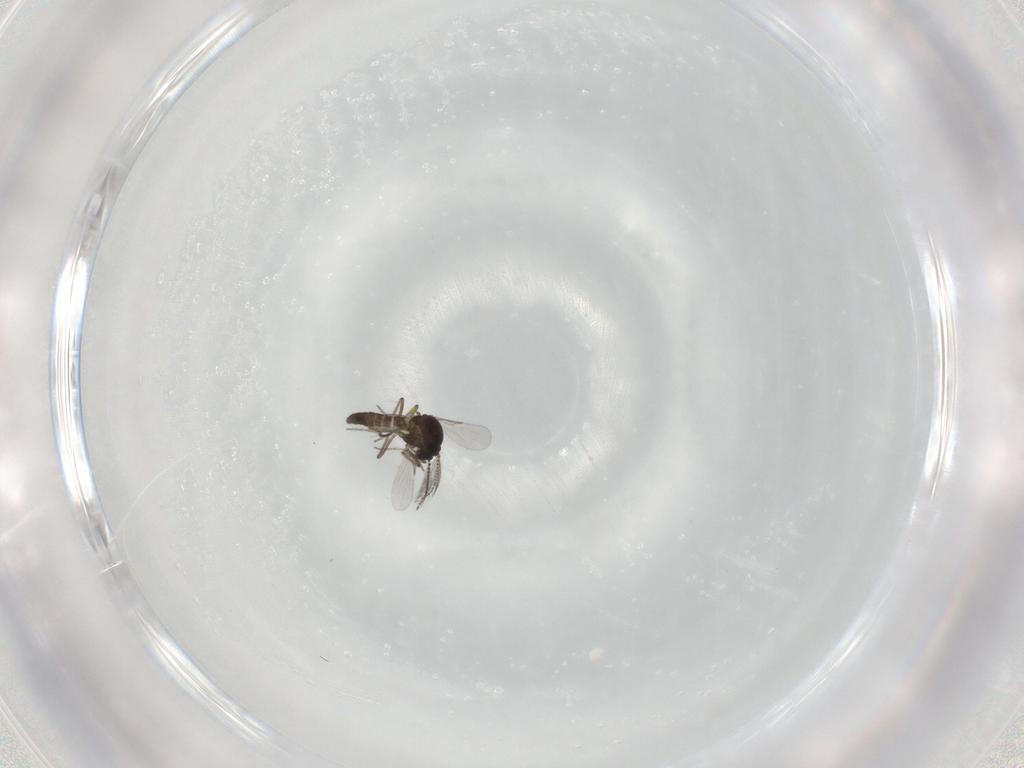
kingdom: Animalia
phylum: Arthropoda
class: Insecta
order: Diptera
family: Ceratopogonidae
